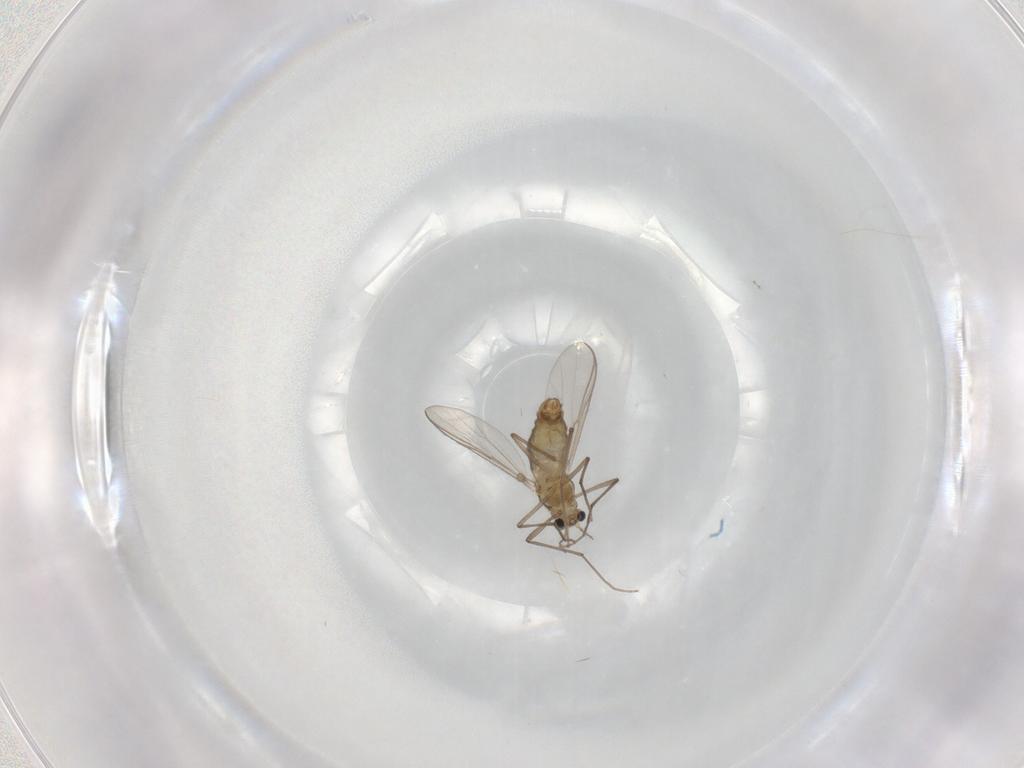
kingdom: Animalia
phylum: Arthropoda
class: Insecta
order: Diptera
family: Chironomidae
